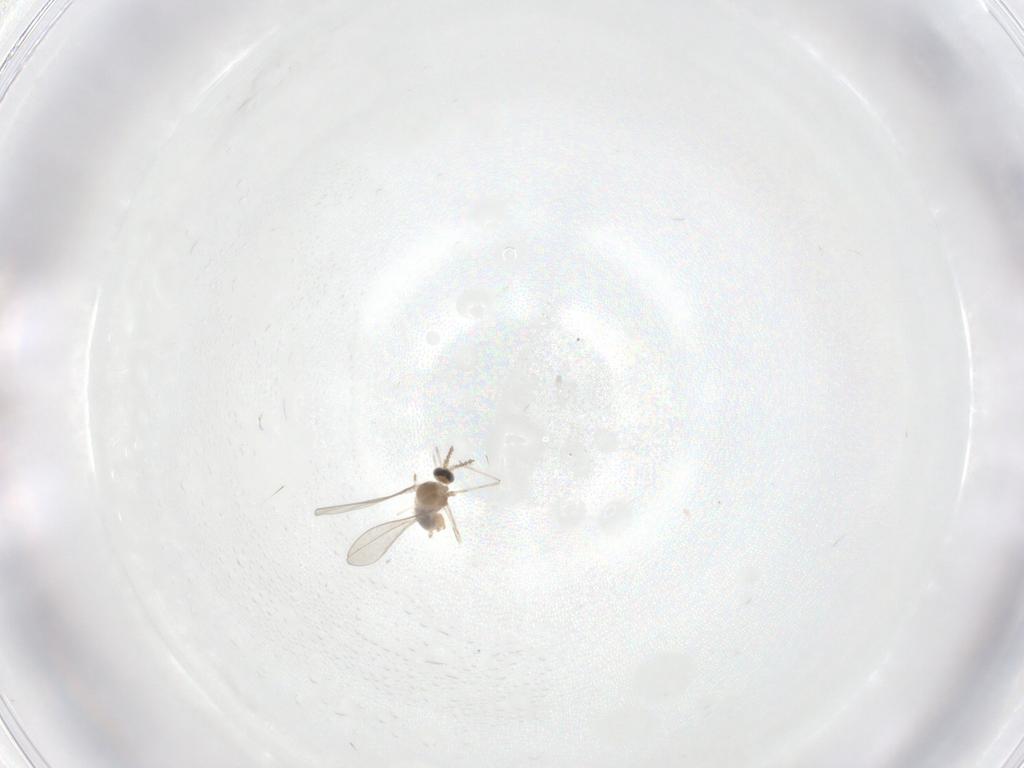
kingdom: Animalia
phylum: Arthropoda
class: Insecta
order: Diptera
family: Cecidomyiidae
